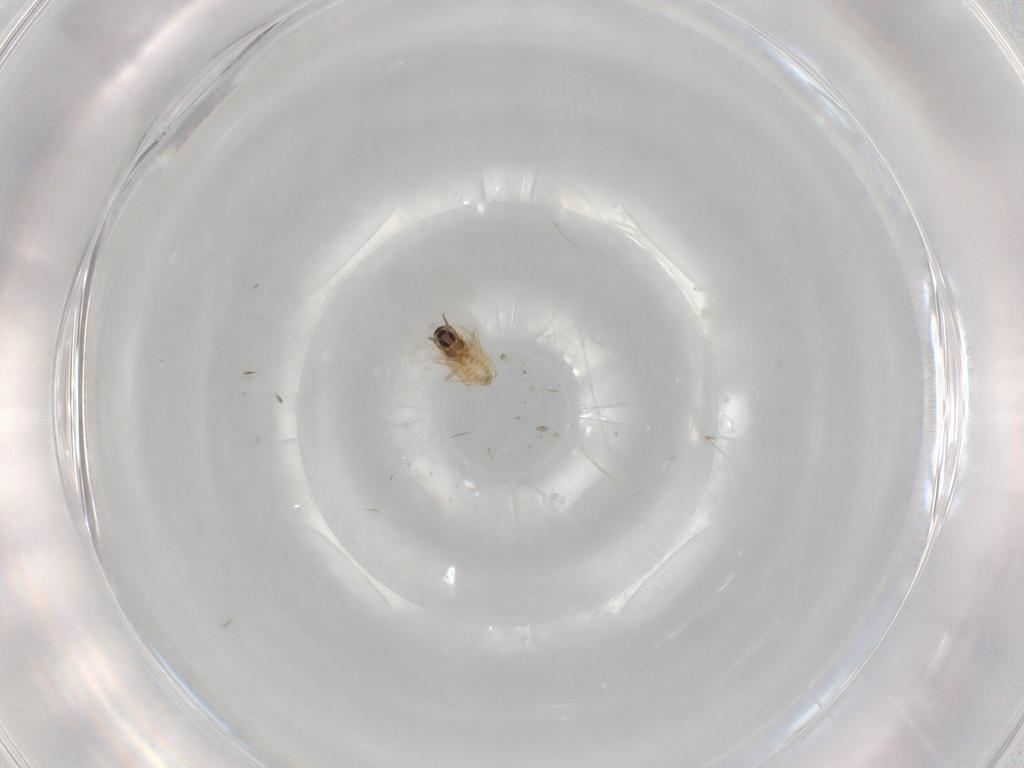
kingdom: Animalia
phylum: Arthropoda
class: Insecta
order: Diptera
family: Cecidomyiidae
